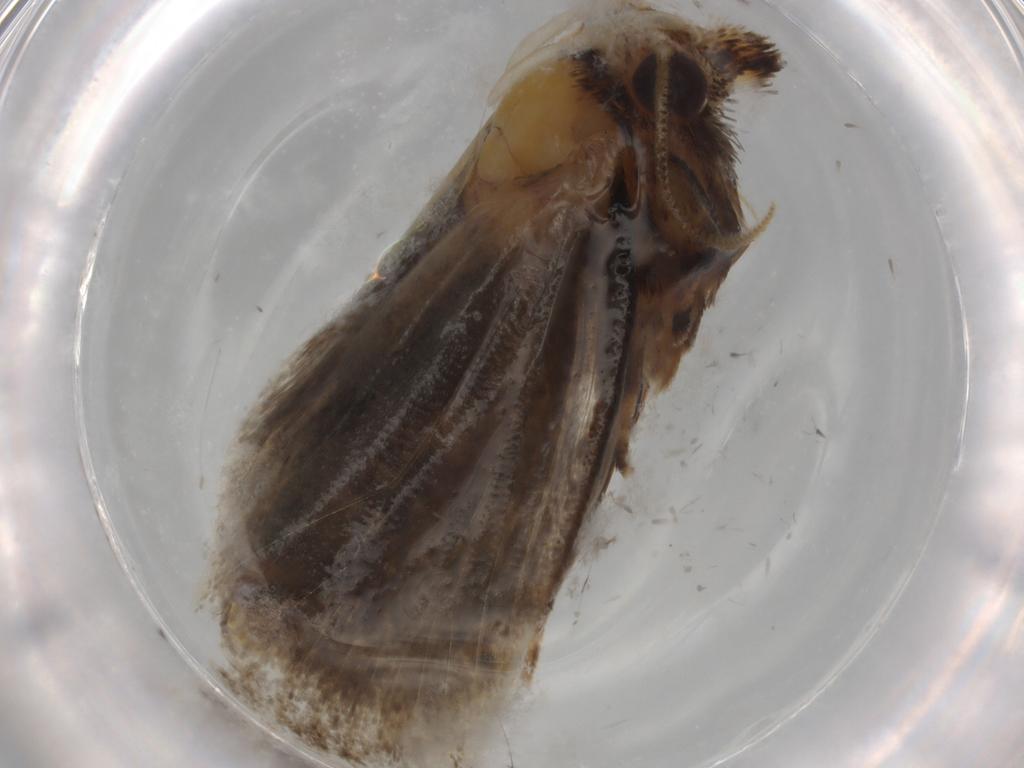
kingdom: Animalia
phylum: Arthropoda
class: Insecta
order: Lepidoptera
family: Tineidae
